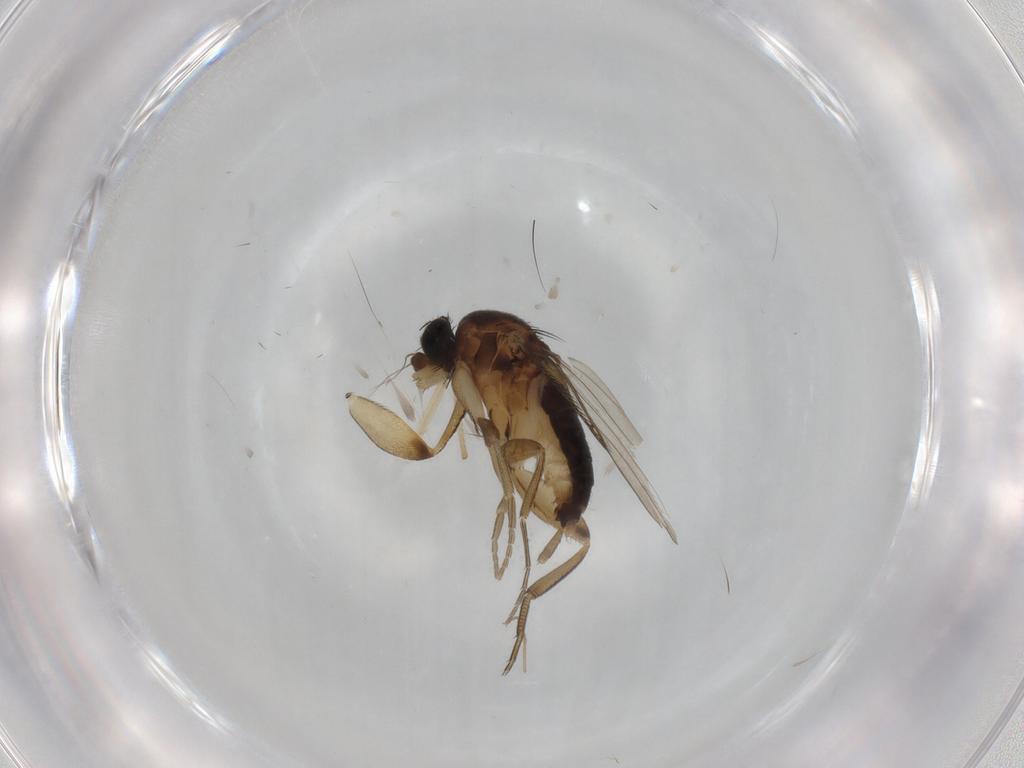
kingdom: Animalia
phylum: Arthropoda
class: Insecta
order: Diptera
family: Phoridae
